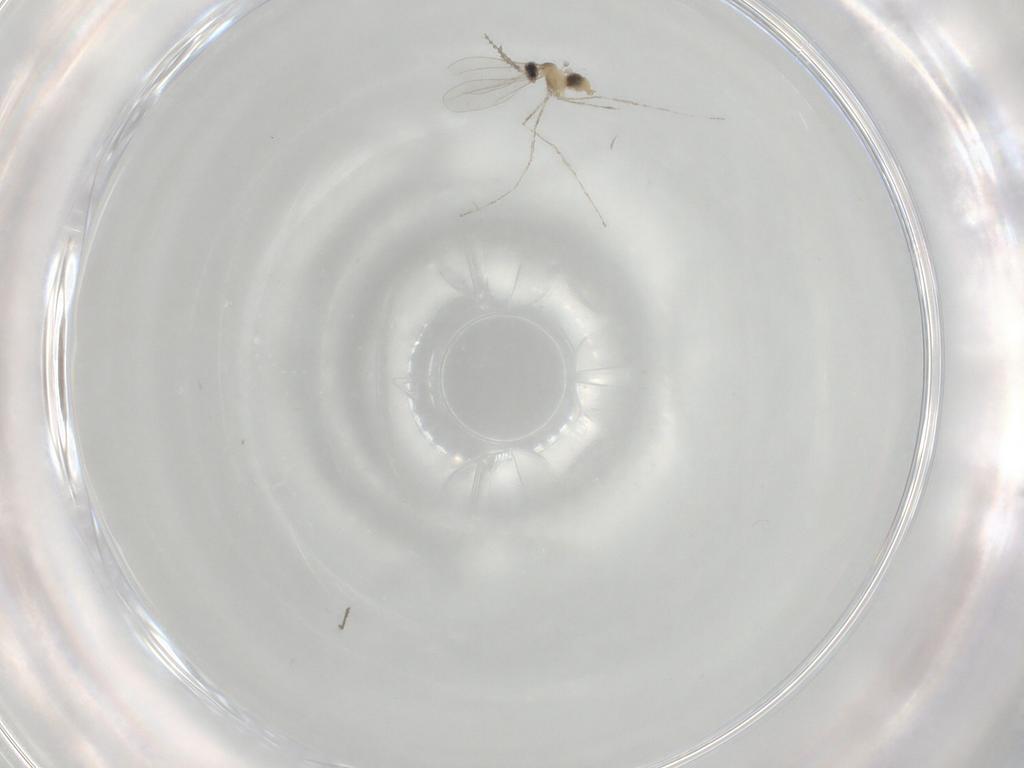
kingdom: Animalia
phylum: Arthropoda
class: Insecta
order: Diptera
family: Cecidomyiidae
